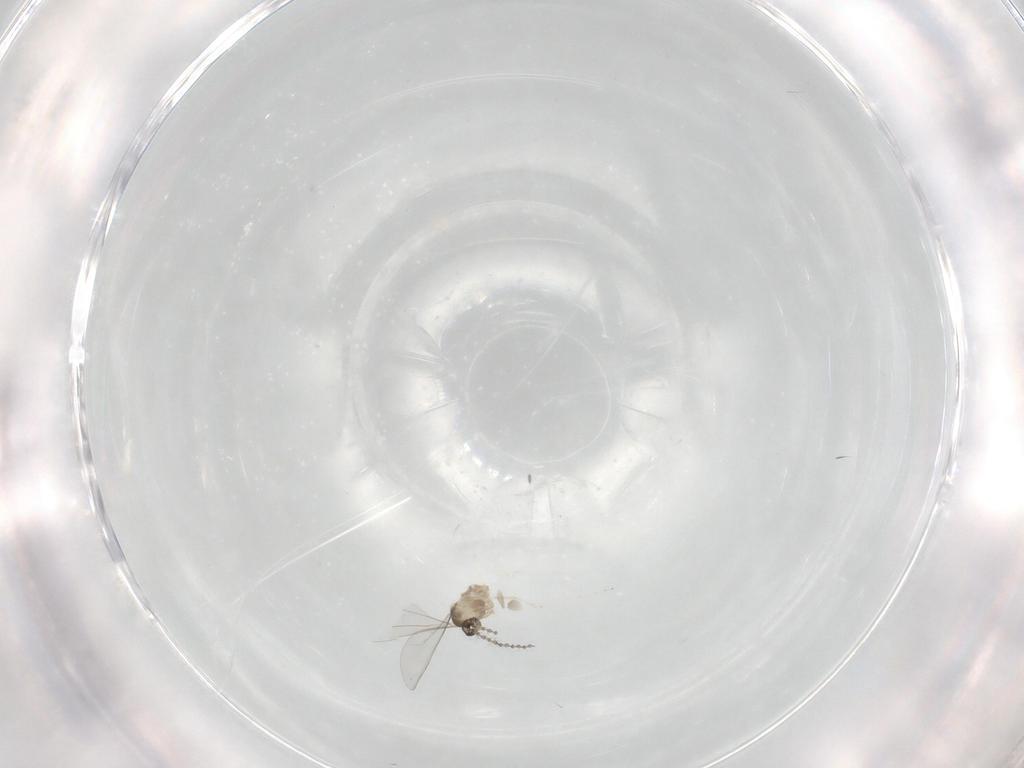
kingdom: Animalia
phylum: Arthropoda
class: Insecta
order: Diptera
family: Cecidomyiidae
